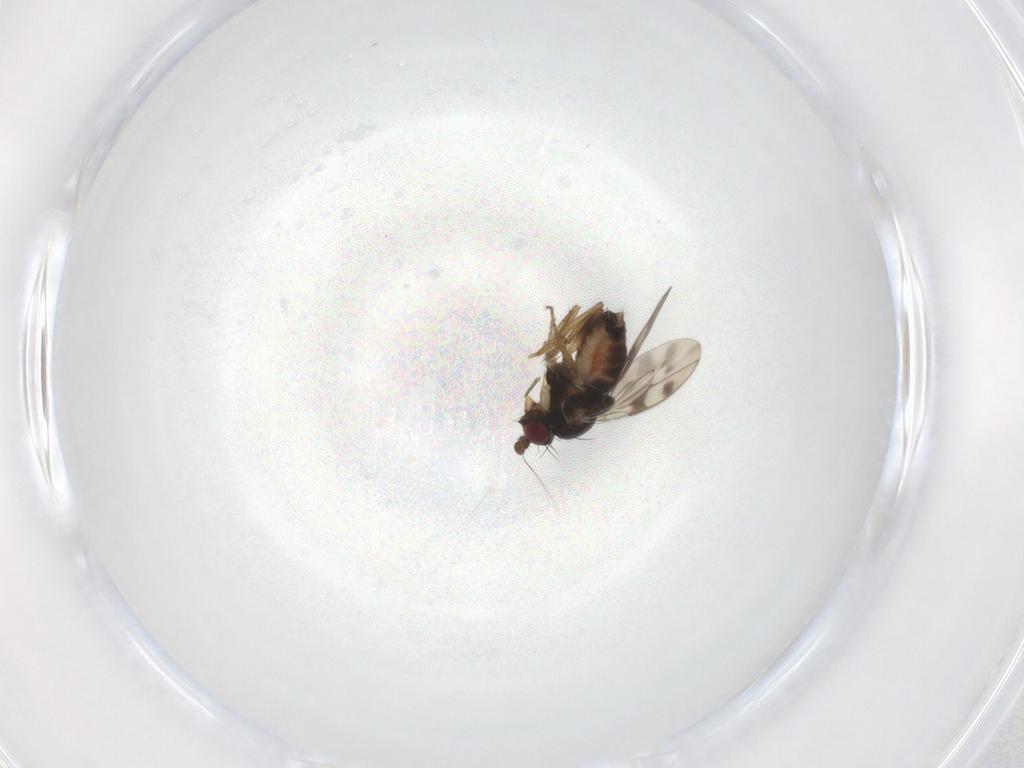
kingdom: Animalia
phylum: Arthropoda
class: Insecta
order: Diptera
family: Sphaeroceridae
